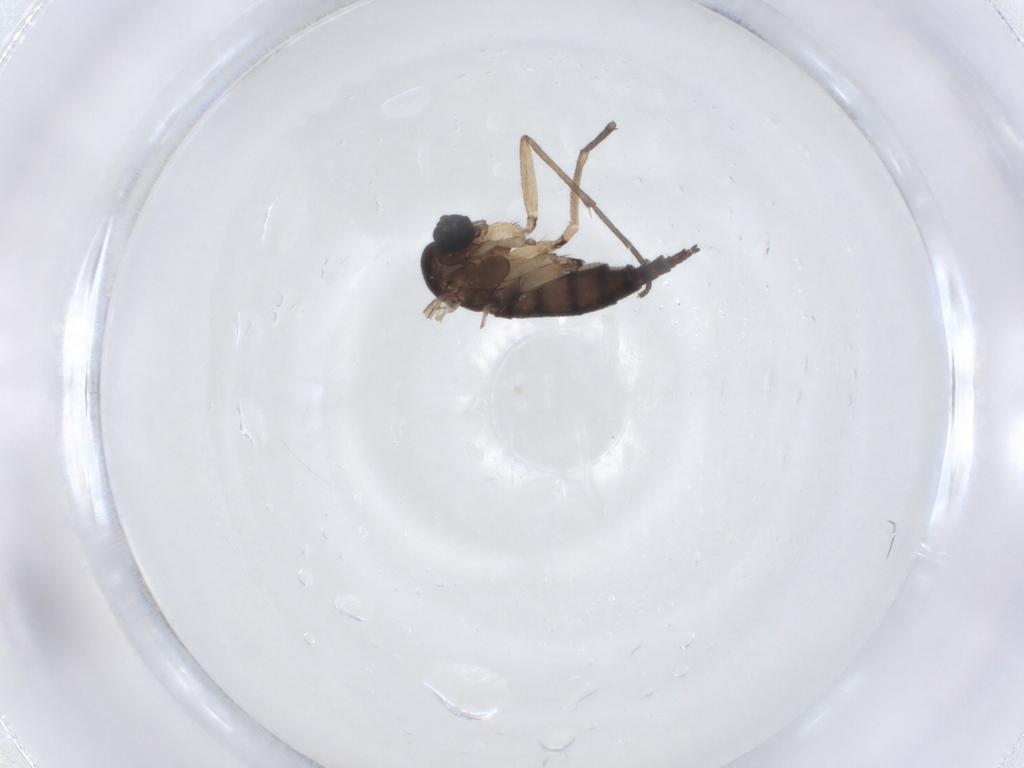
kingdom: Animalia
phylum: Arthropoda
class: Insecta
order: Diptera
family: Sciaridae
